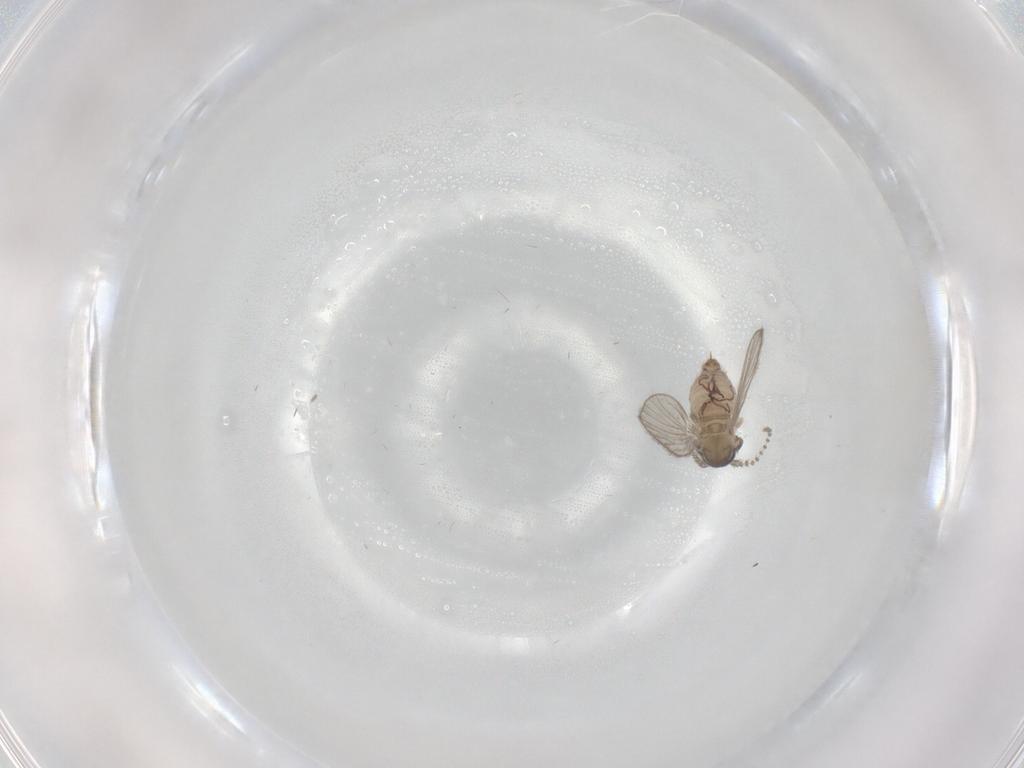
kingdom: Animalia
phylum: Arthropoda
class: Insecta
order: Diptera
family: Psychodidae
